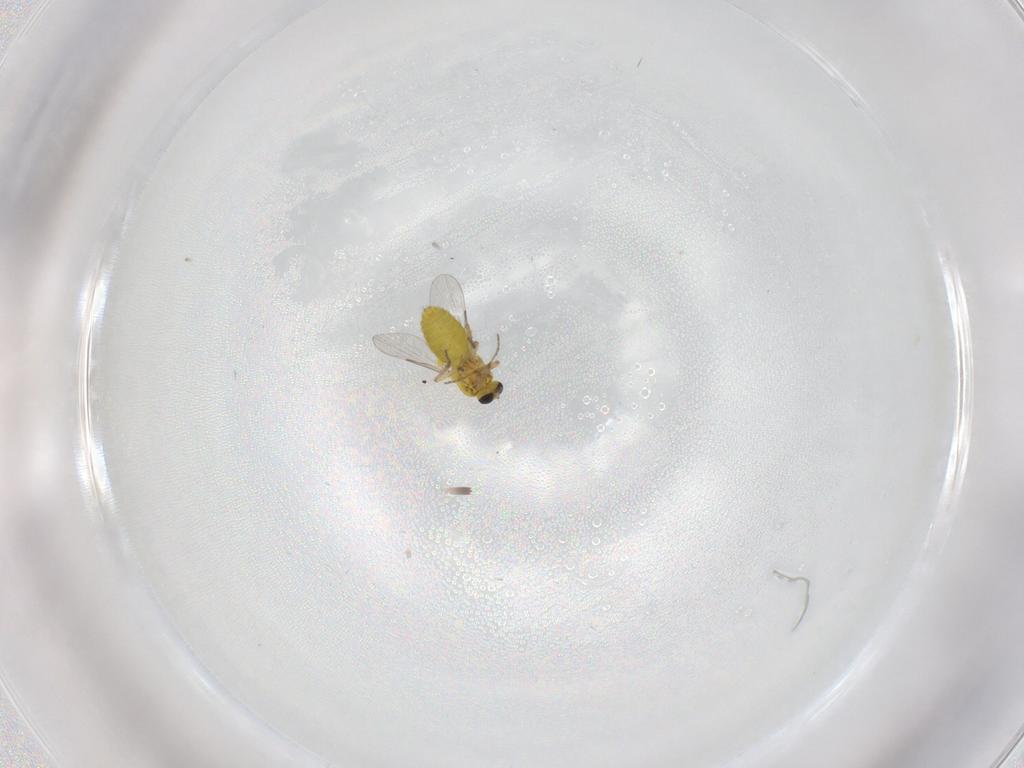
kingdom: Animalia
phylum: Arthropoda
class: Insecta
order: Diptera
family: Ceratopogonidae
